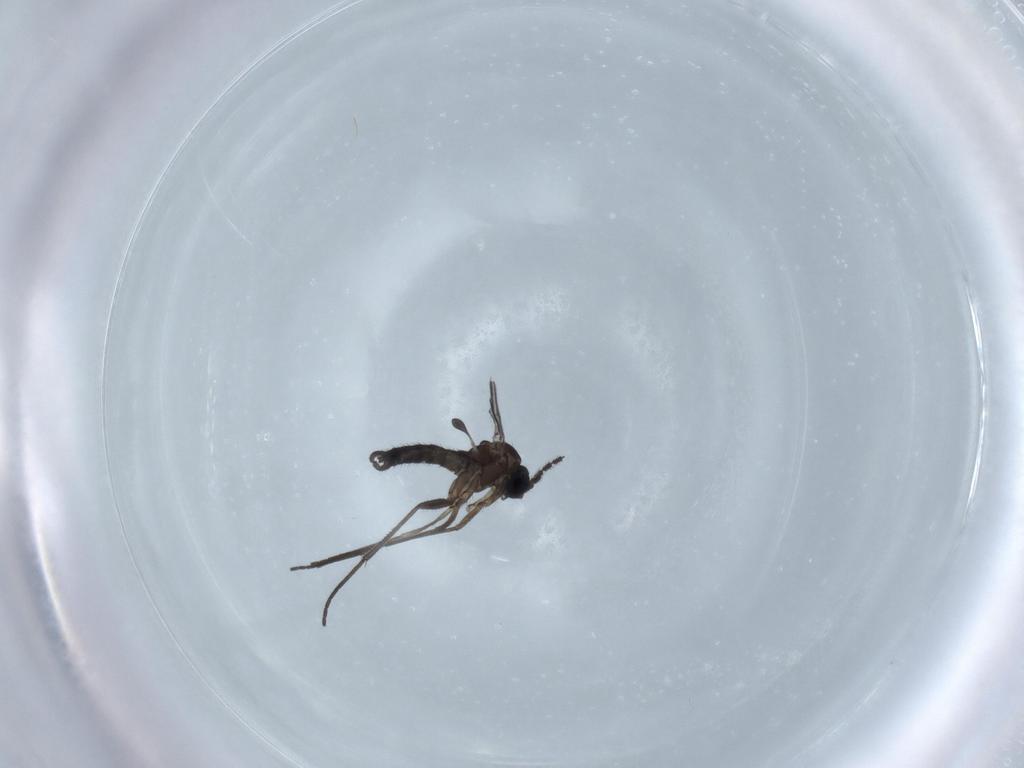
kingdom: Animalia
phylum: Arthropoda
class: Insecta
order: Diptera
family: Sciaridae
